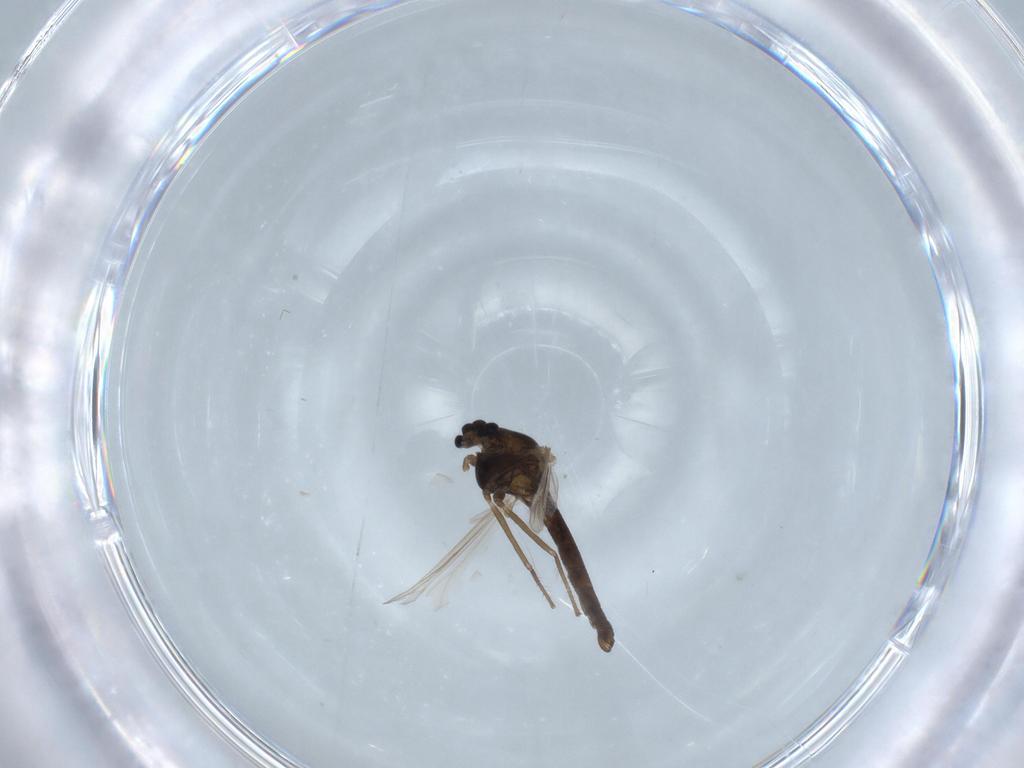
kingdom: Animalia
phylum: Arthropoda
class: Insecta
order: Diptera
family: Chironomidae
